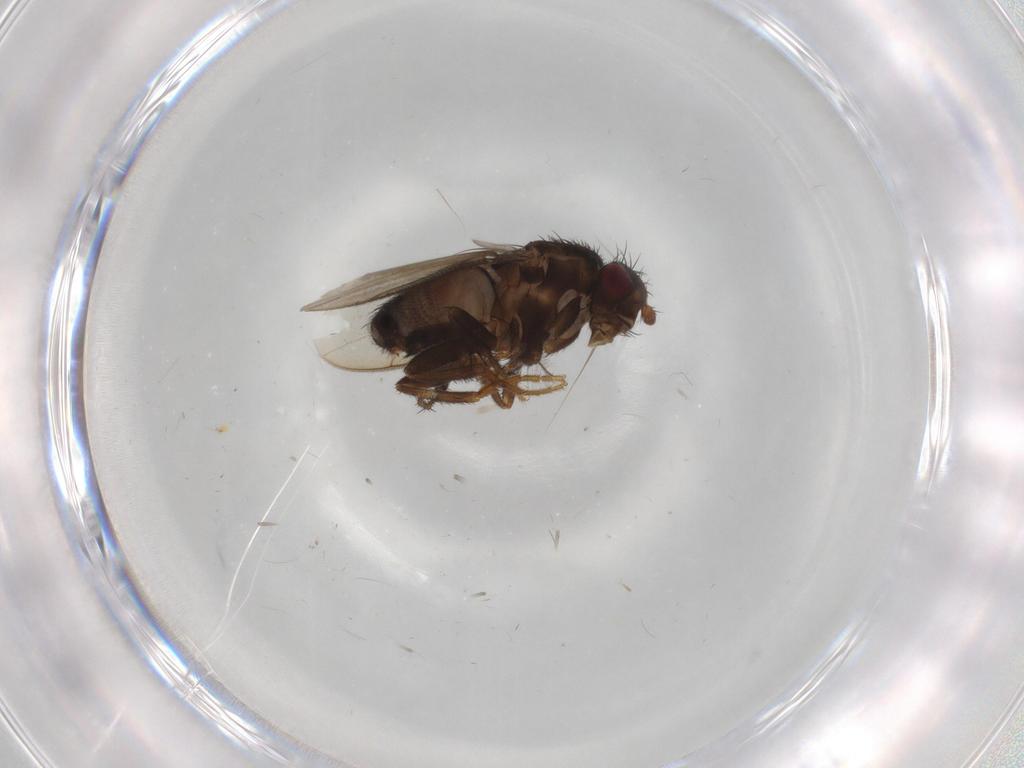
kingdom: Animalia
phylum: Arthropoda
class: Insecta
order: Diptera
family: Sphaeroceridae
